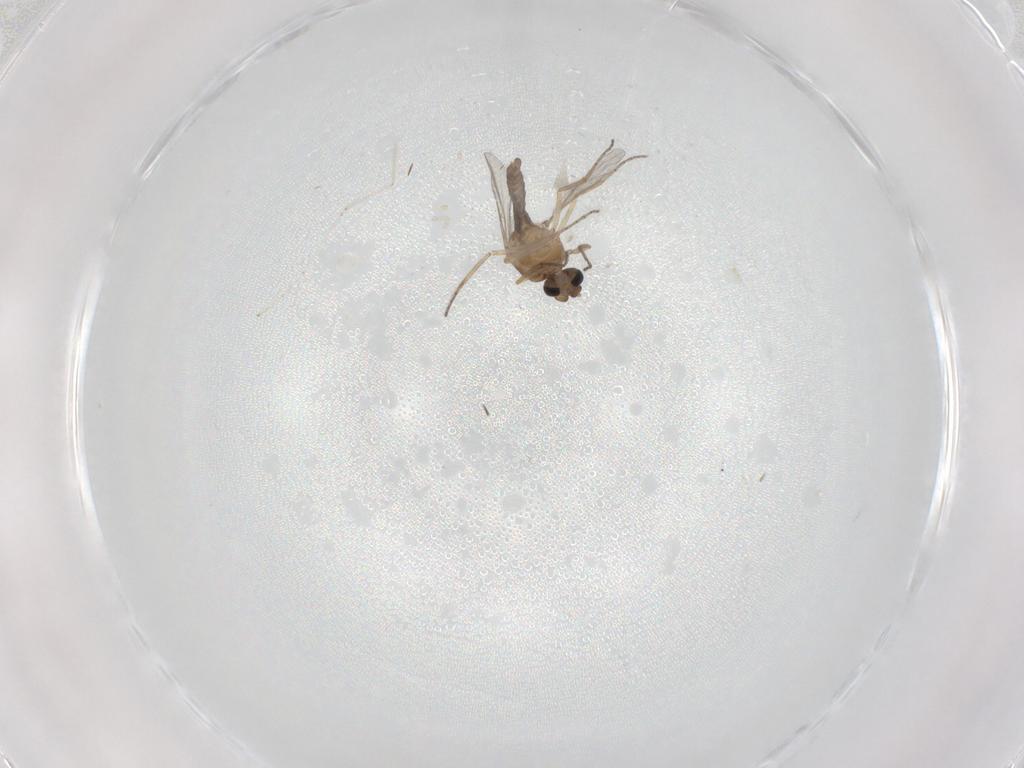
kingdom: Animalia
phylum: Arthropoda
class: Insecta
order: Diptera
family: Ceratopogonidae
